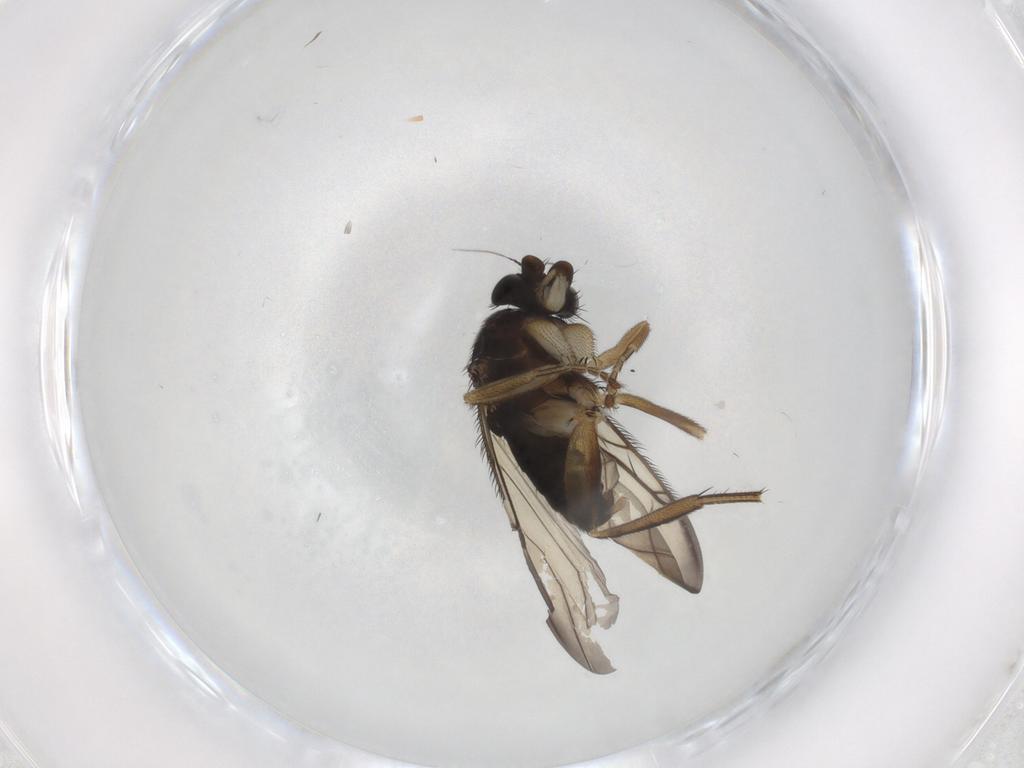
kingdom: Animalia
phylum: Arthropoda
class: Insecta
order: Diptera
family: Phoridae
